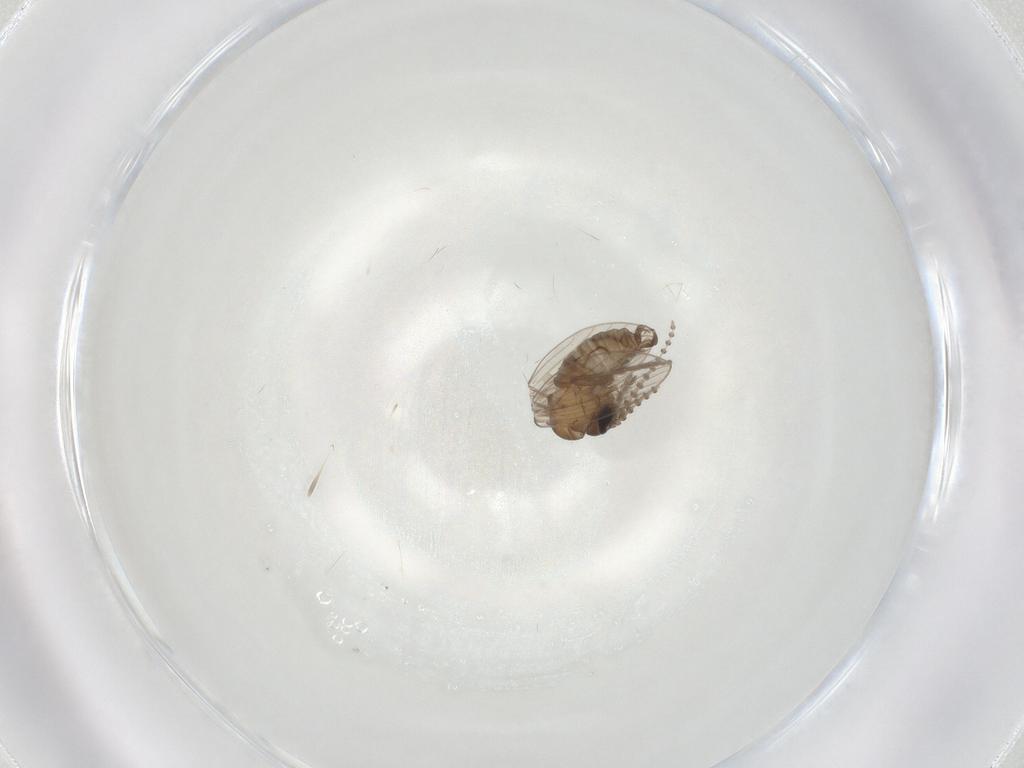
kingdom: Animalia
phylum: Arthropoda
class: Insecta
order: Diptera
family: Psychodidae
